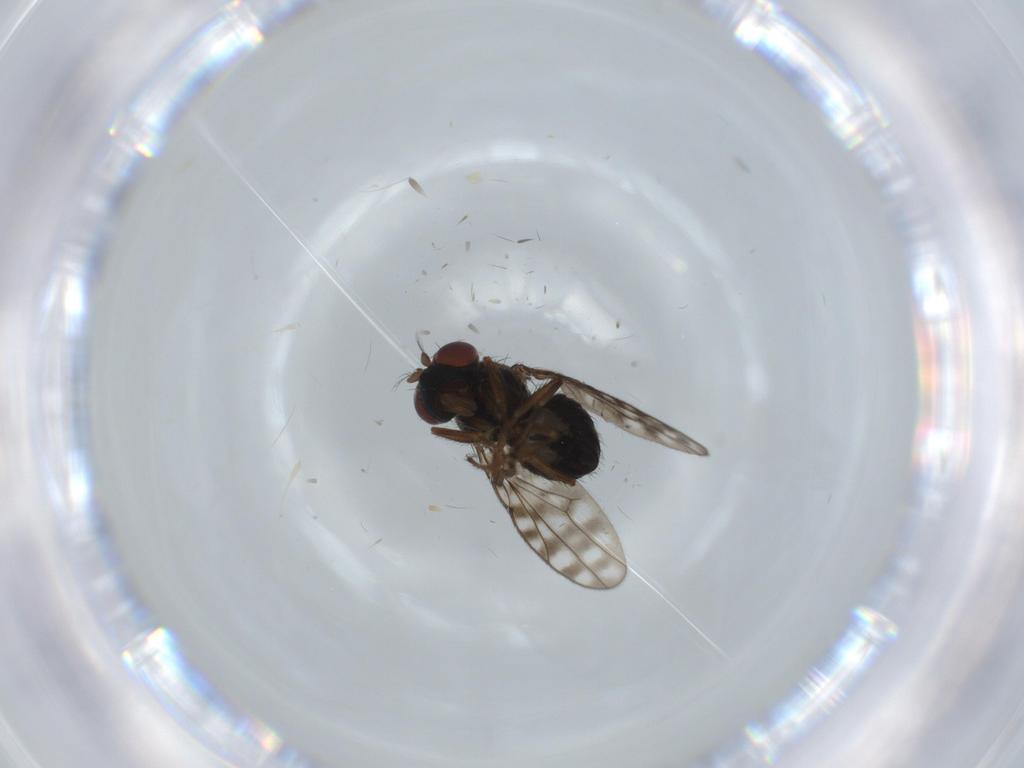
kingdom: Animalia
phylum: Arthropoda
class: Insecta
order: Diptera
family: Ephydridae
